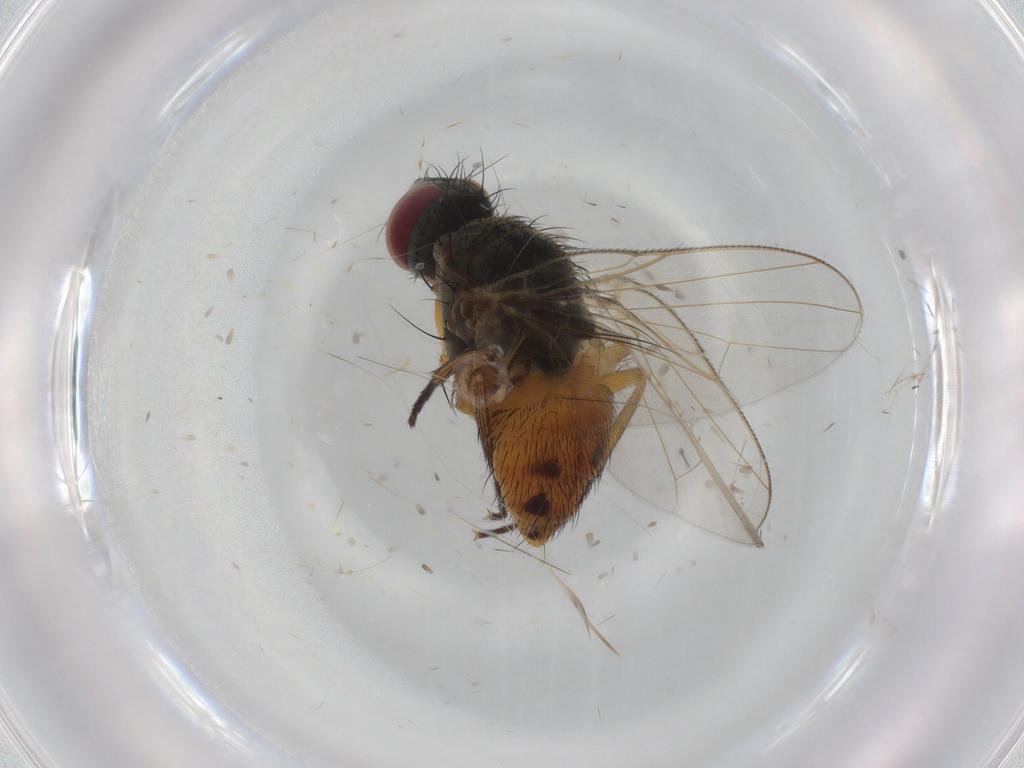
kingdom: Animalia
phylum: Arthropoda
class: Insecta
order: Diptera
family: Muscidae
